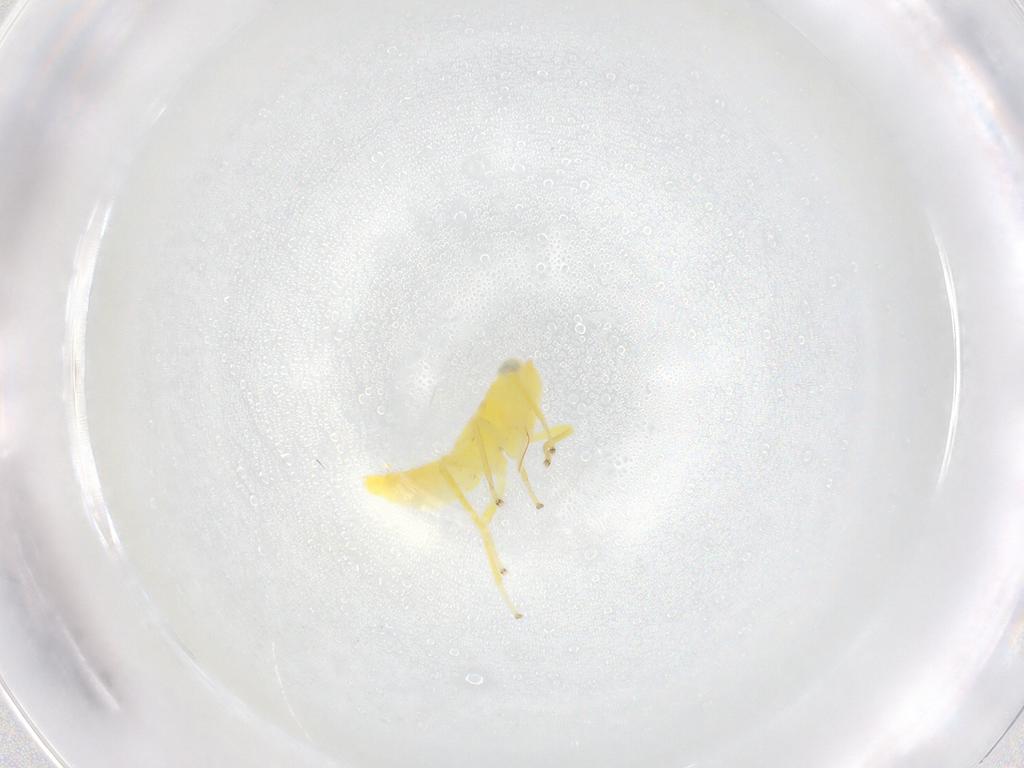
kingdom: Animalia
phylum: Arthropoda
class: Insecta
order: Hemiptera
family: Cicadellidae
